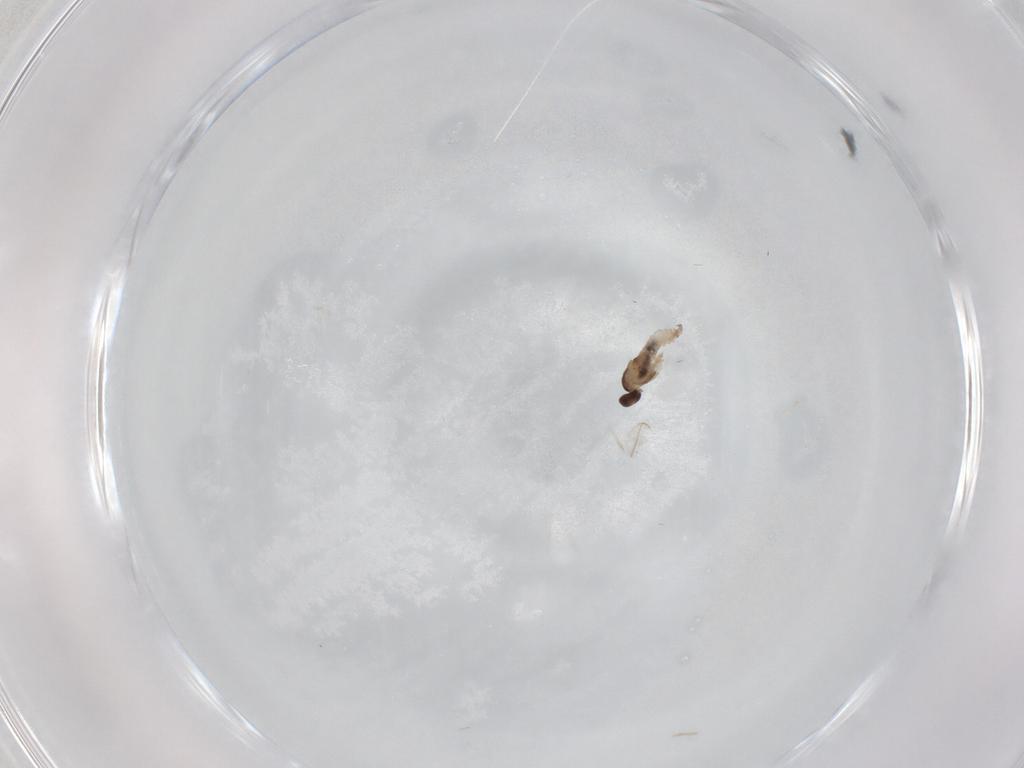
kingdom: Animalia
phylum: Arthropoda
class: Insecta
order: Diptera
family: Cecidomyiidae
